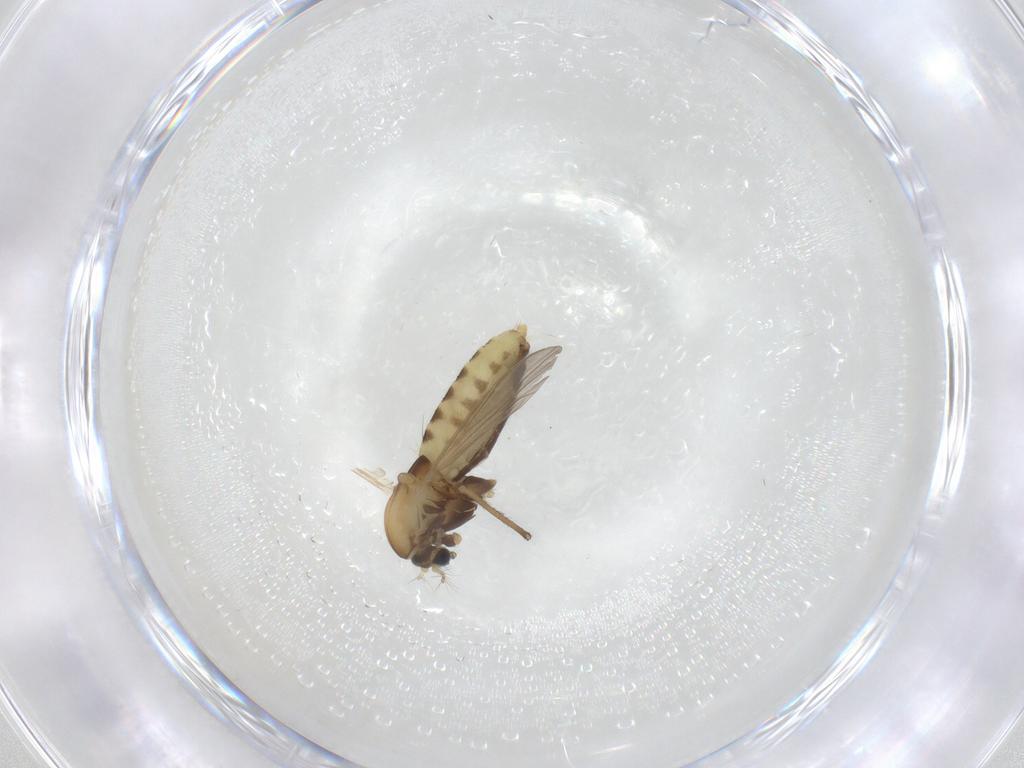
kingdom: Animalia
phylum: Arthropoda
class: Insecta
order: Diptera
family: Chironomidae
